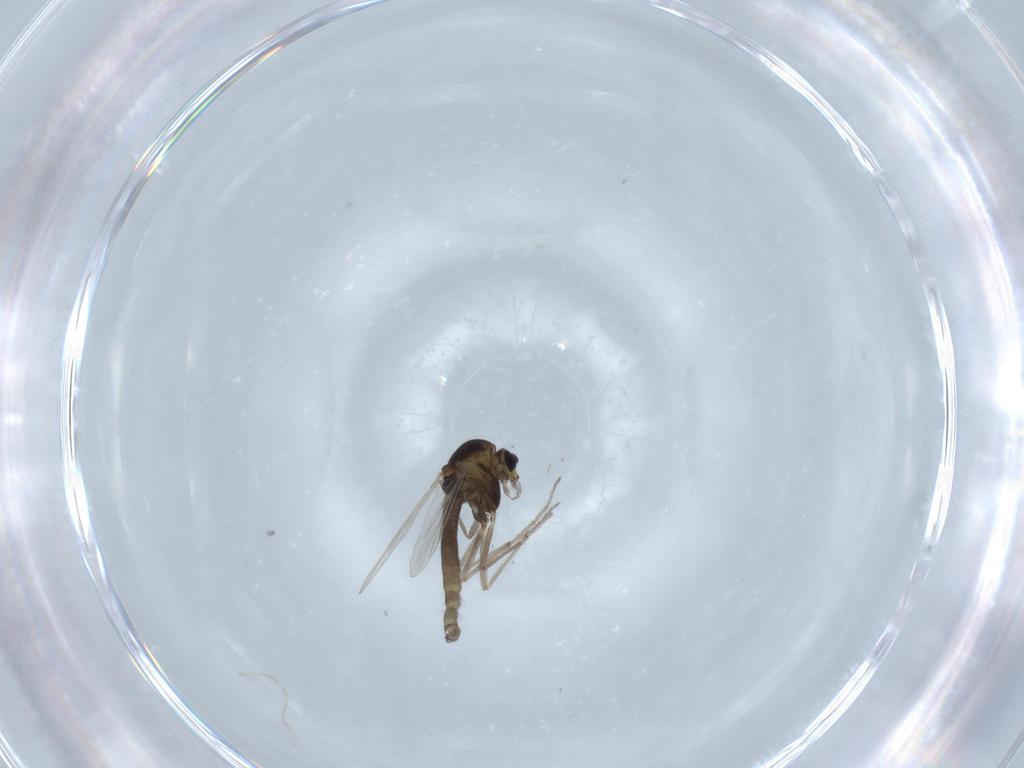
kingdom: Animalia
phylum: Arthropoda
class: Insecta
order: Diptera
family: Chironomidae
